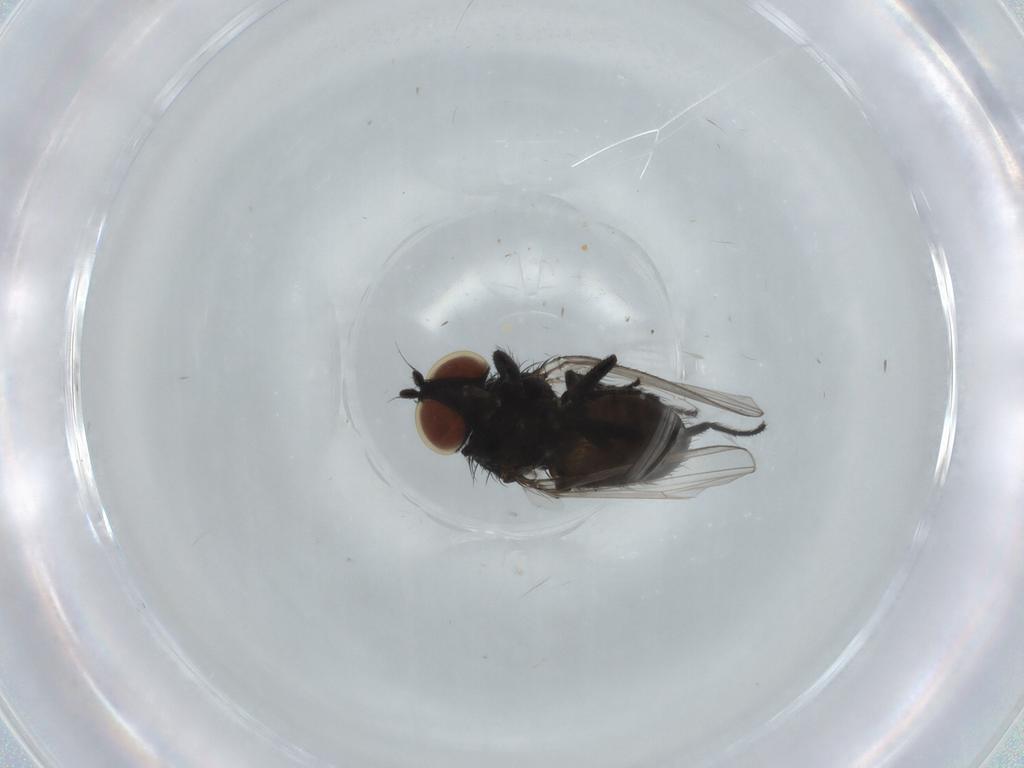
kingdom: Animalia
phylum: Arthropoda
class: Insecta
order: Diptera
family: Milichiidae
